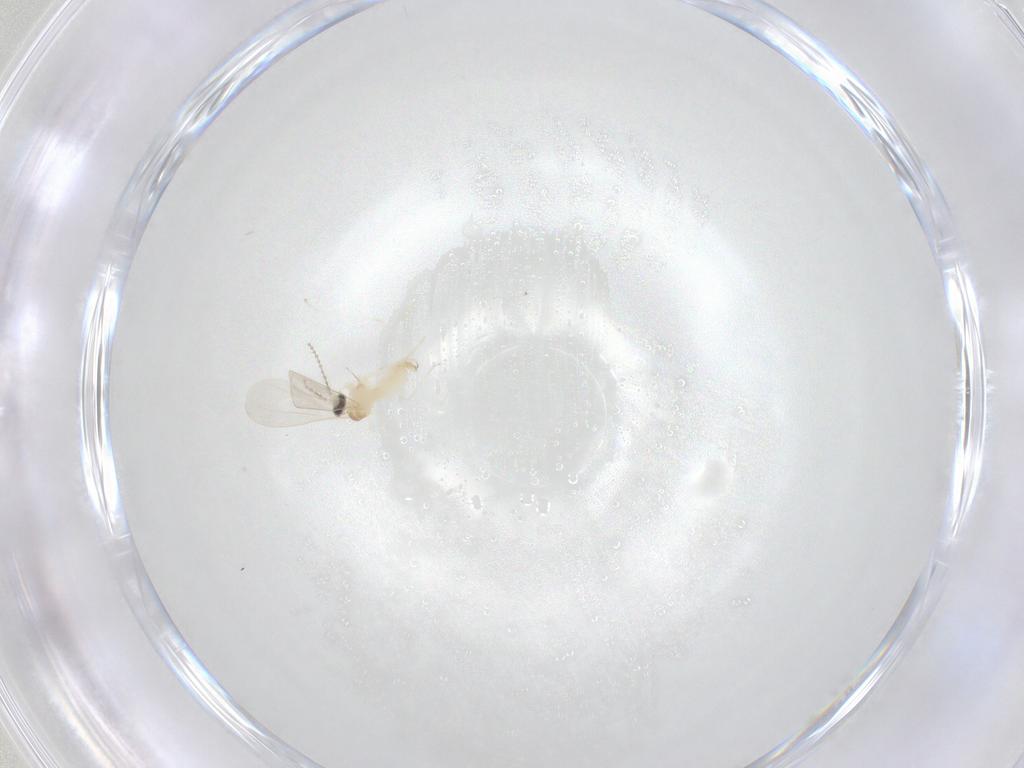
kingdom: Animalia
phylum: Arthropoda
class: Insecta
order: Diptera
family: Cecidomyiidae
